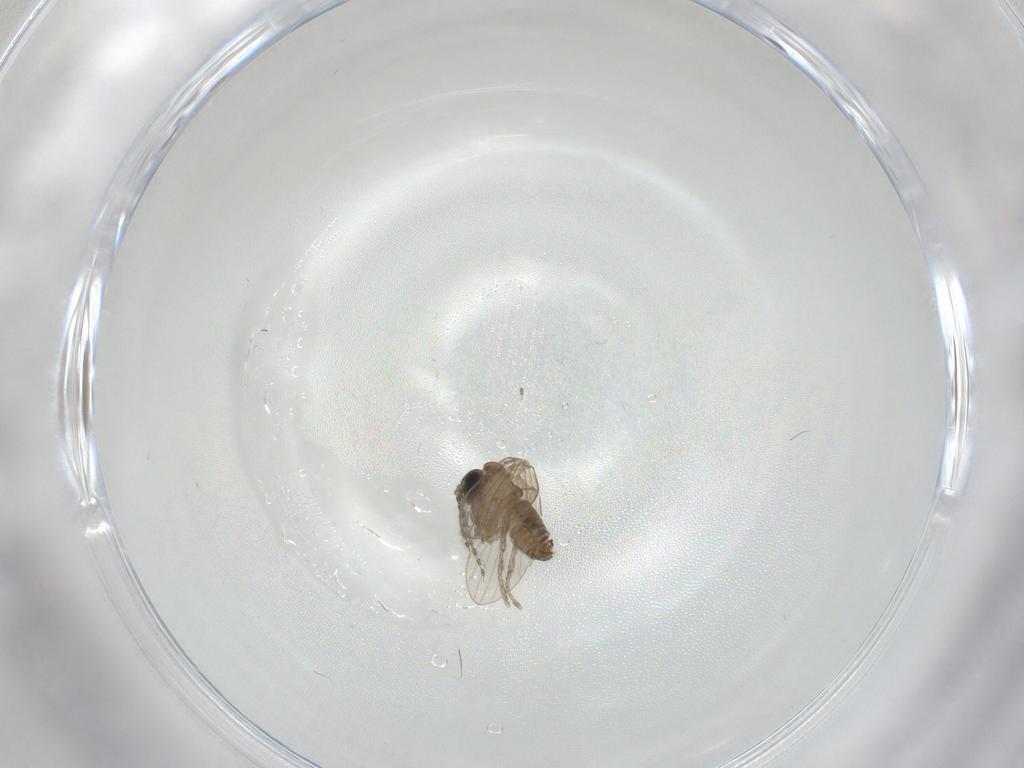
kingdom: Animalia
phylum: Arthropoda
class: Insecta
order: Diptera
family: Psychodidae
